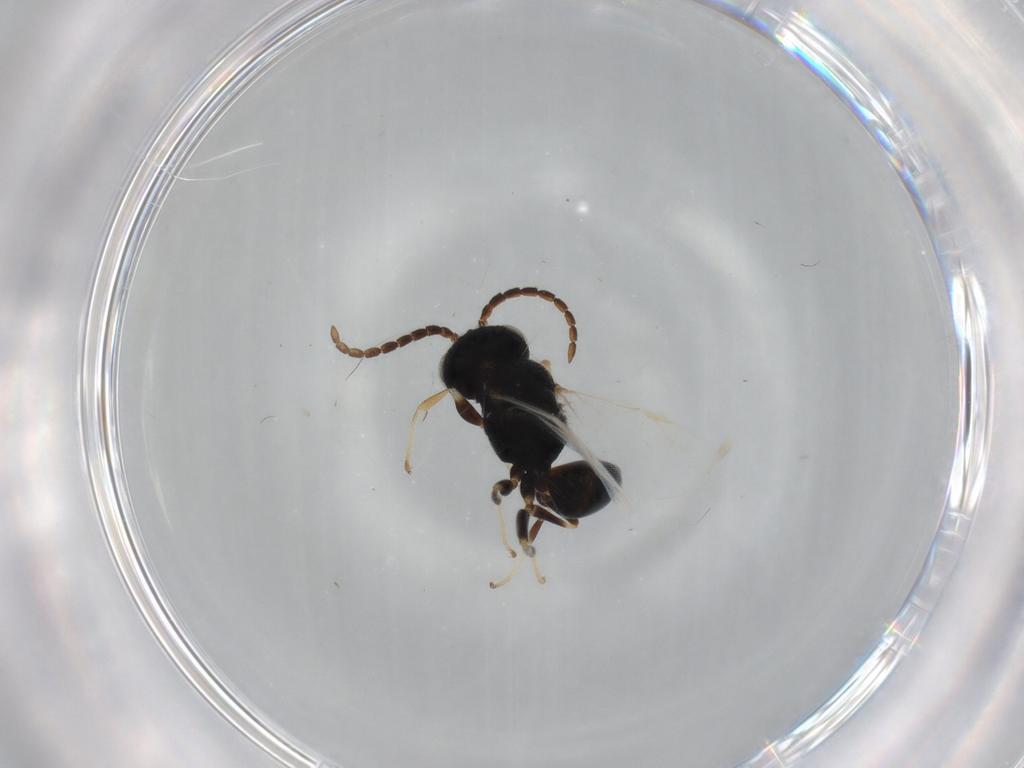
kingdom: Animalia
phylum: Arthropoda
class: Insecta
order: Hymenoptera
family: Dryinidae
